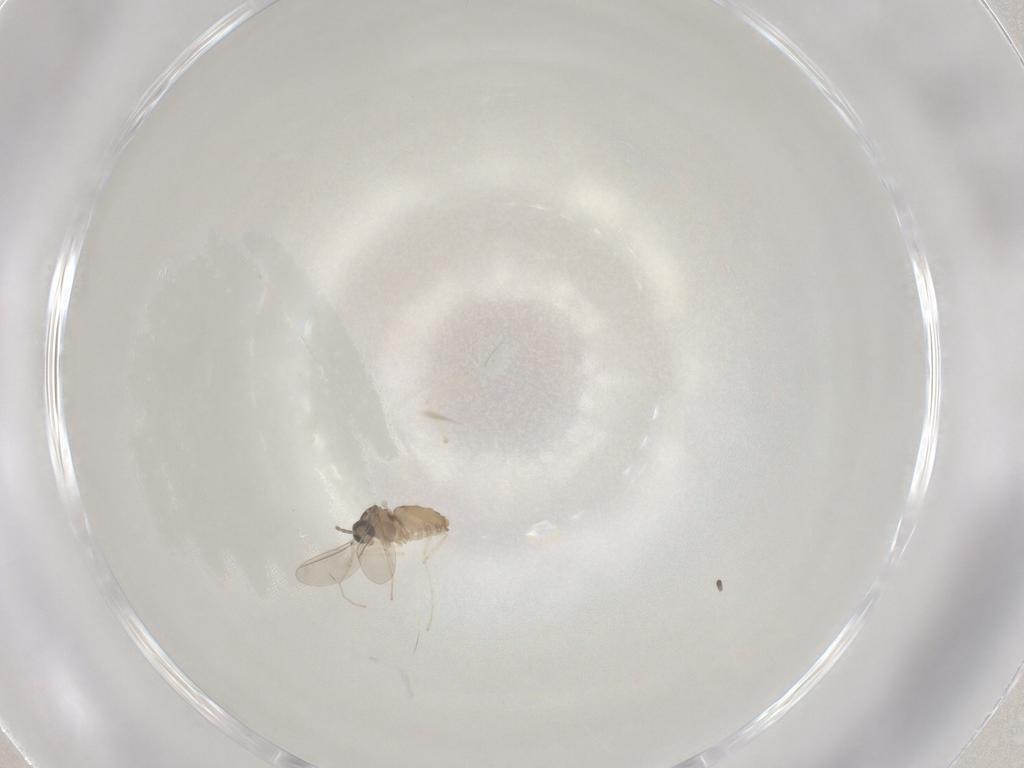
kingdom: Animalia
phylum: Arthropoda
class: Insecta
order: Diptera
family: Cecidomyiidae
